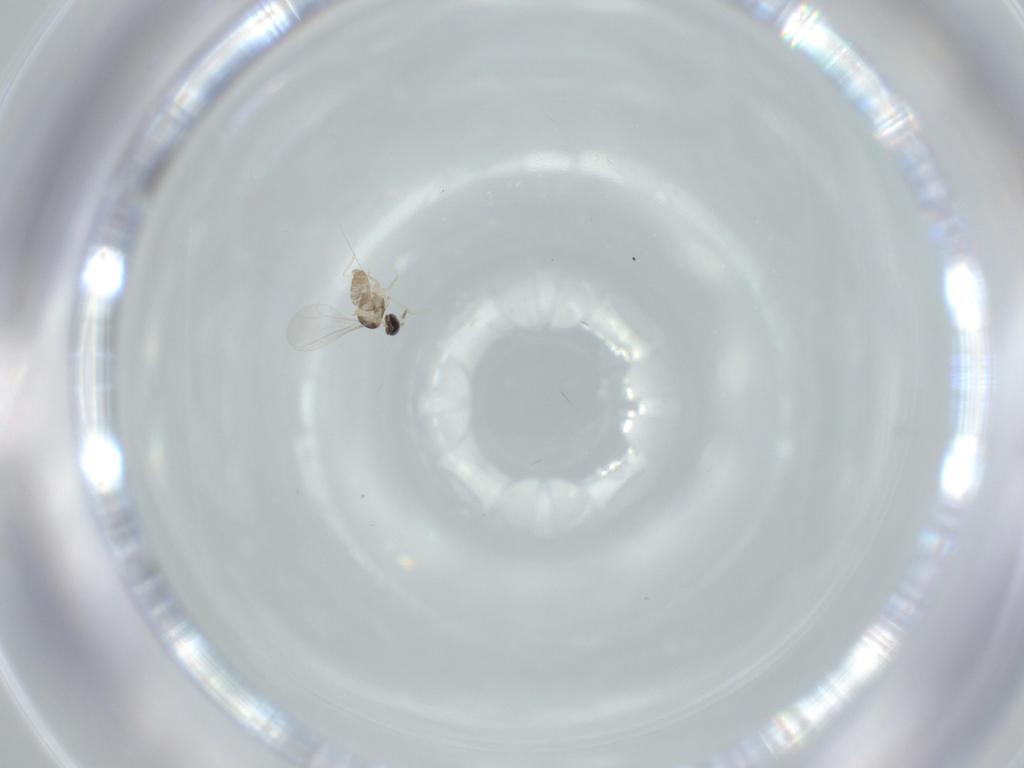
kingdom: Animalia
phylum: Arthropoda
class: Insecta
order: Diptera
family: Cecidomyiidae
